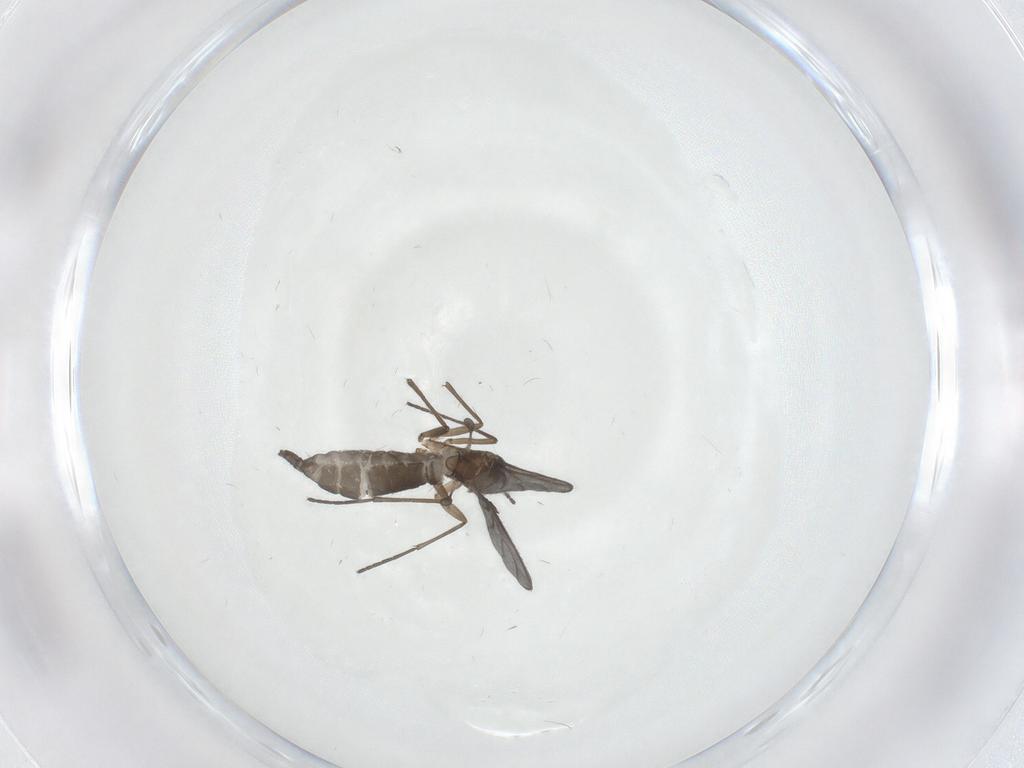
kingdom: Animalia
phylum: Arthropoda
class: Insecta
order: Diptera
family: Sciaridae
